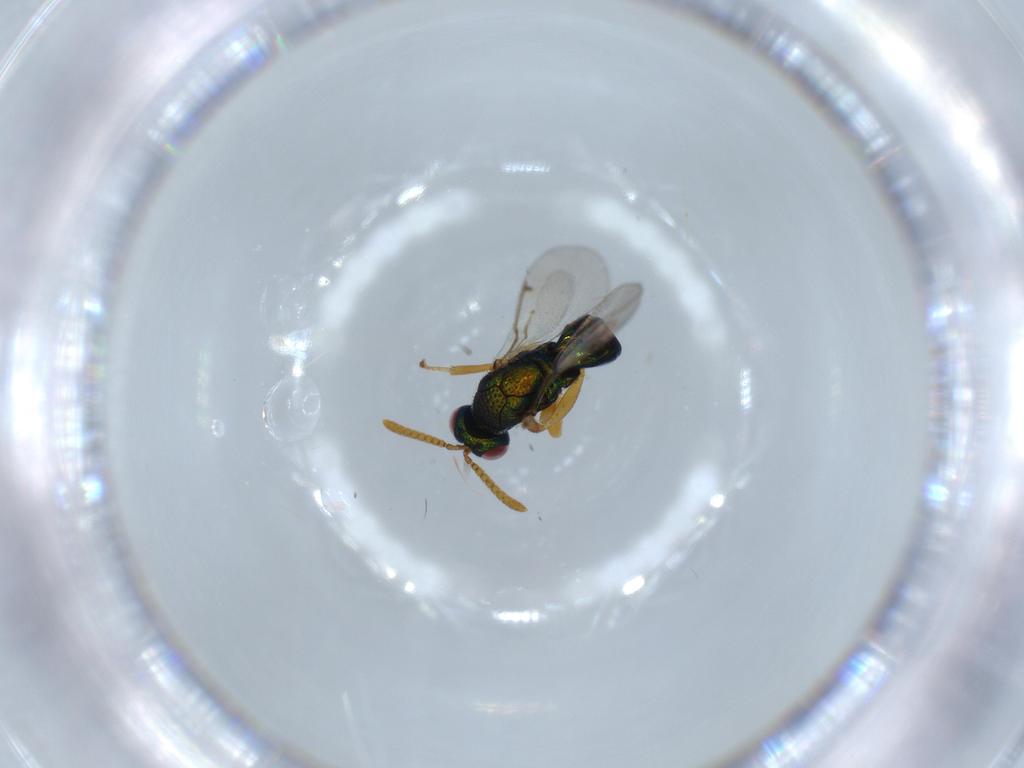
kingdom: Animalia
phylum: Arthropoda
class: Insecta
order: Hymenoptera
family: Torymidae
